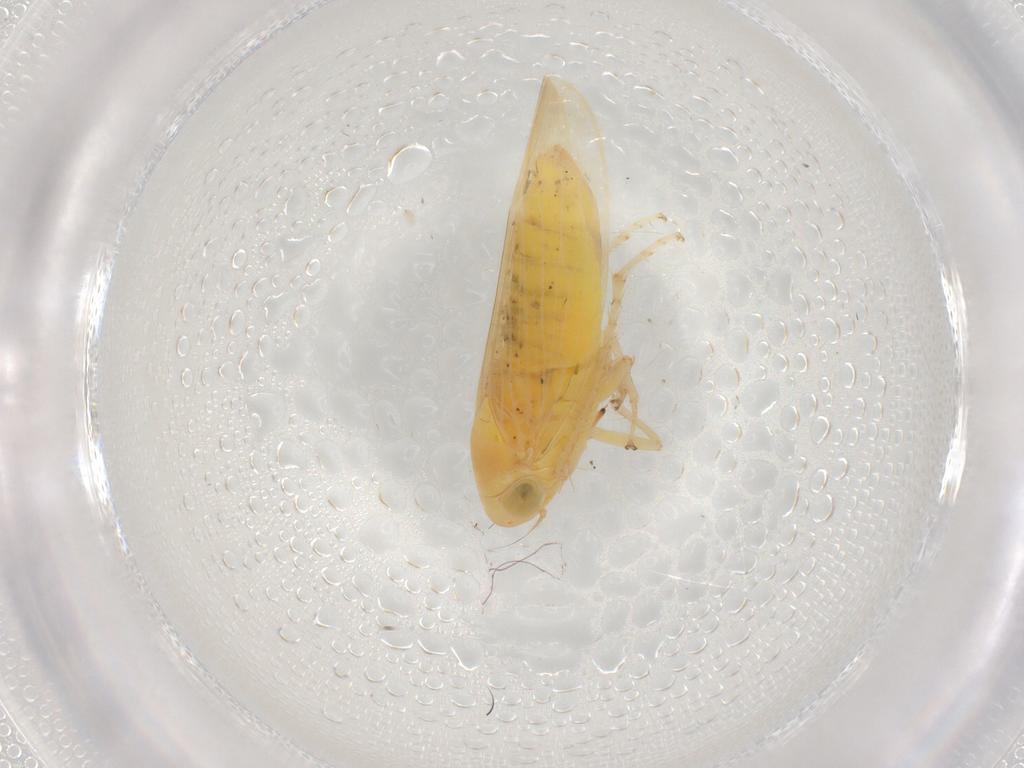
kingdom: Animalia
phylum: Arthropoda
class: Insecta
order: Hemiptera
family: Cicadellidae
